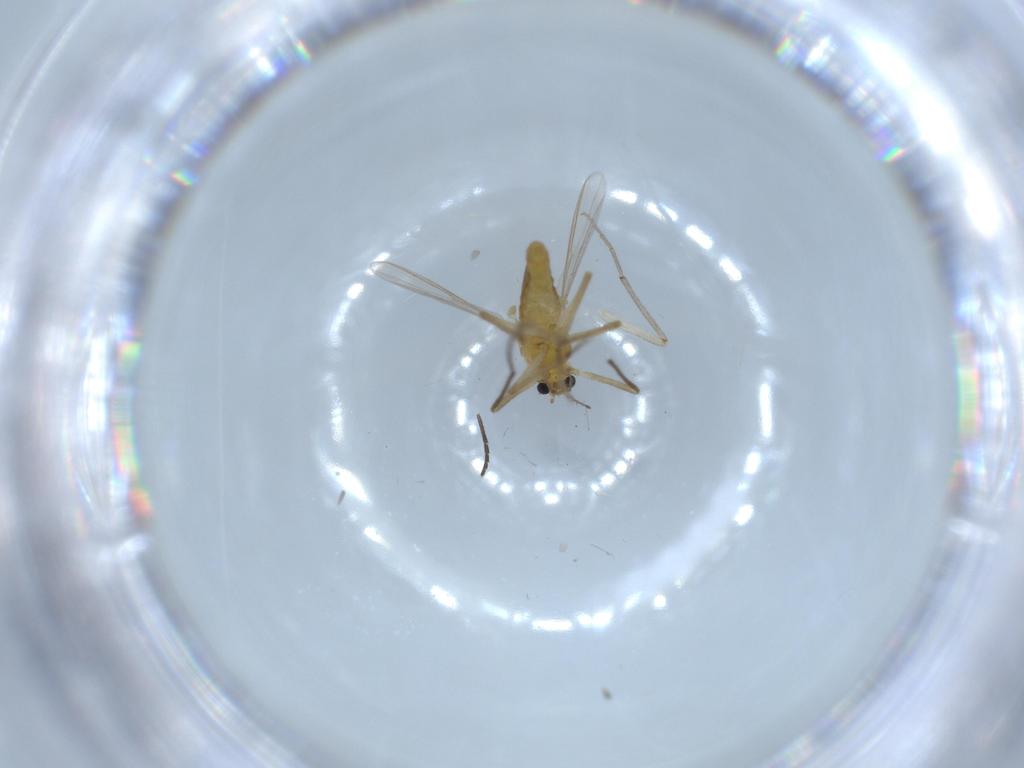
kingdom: Animalia
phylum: Arthropoda
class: Insecta
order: Diptera
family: Chironomidae
